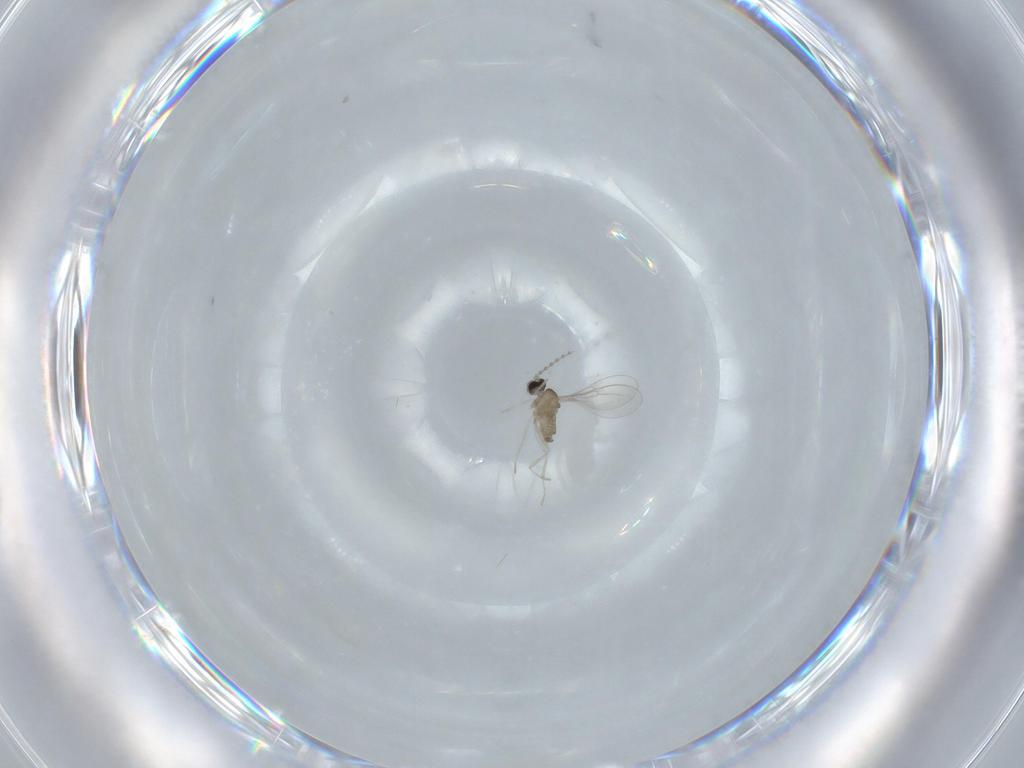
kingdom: Animalia
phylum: Arthropoda
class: Insecta
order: Diptera
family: Cecidomyiidae
